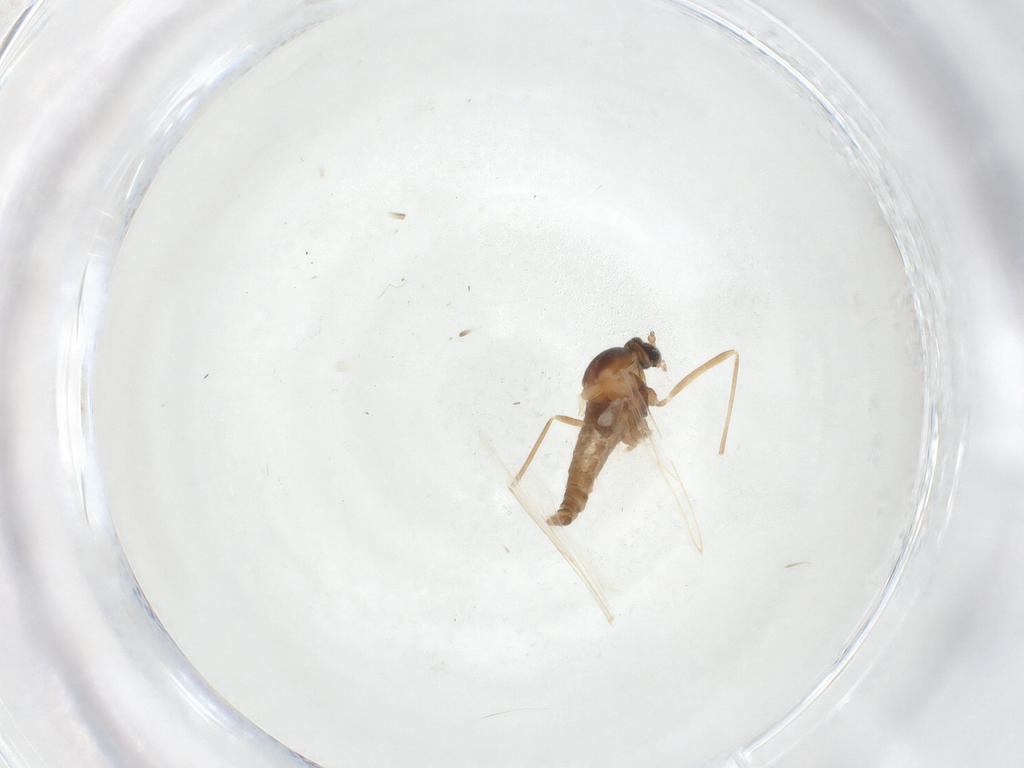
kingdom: Animalia
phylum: Arthropoda
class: Insecta
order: Diptera
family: Cecidomyiidae
